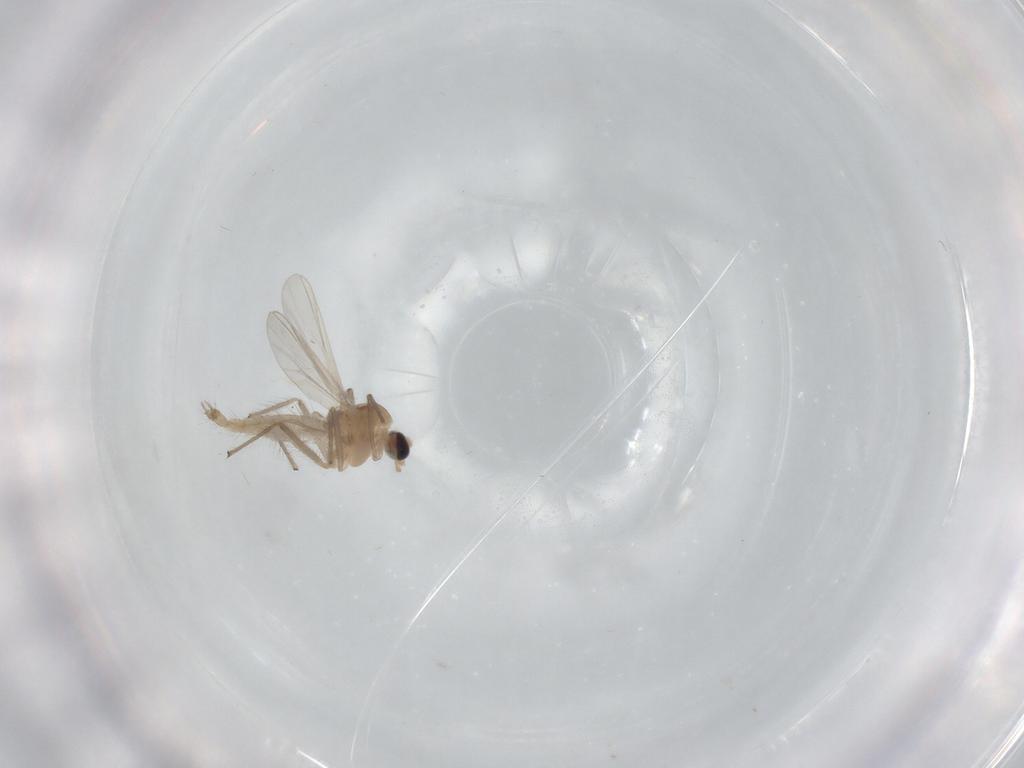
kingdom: Animalia
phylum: Arthropoda
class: Insecta
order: Diptera
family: Chironomidae
